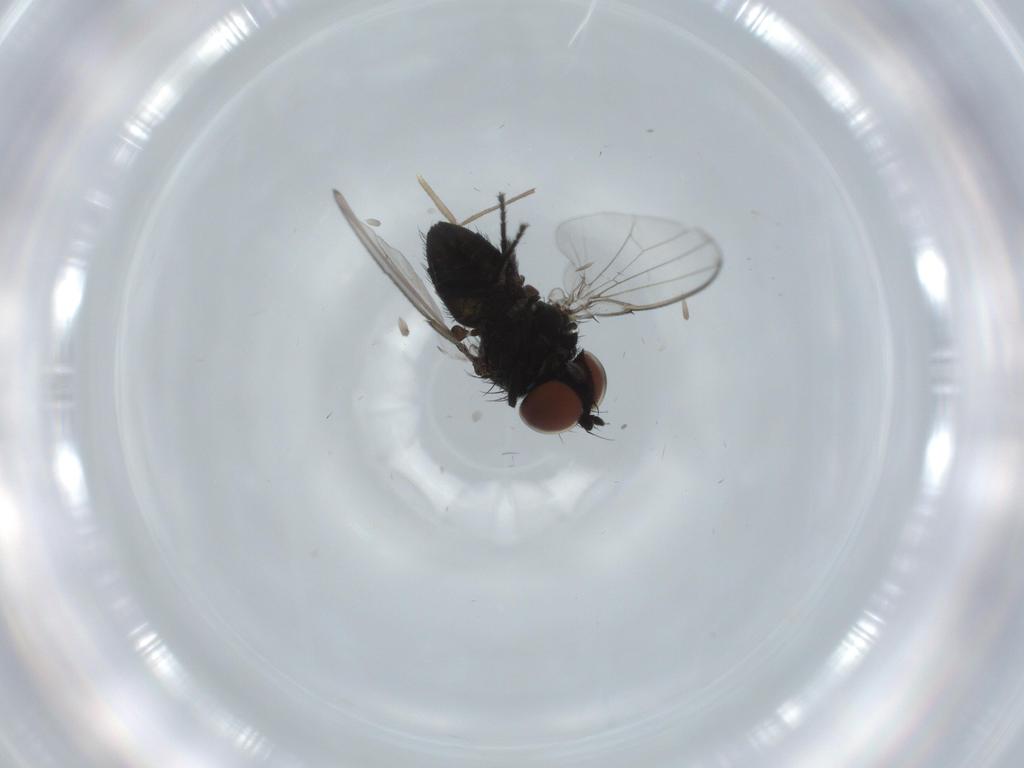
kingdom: Animalia
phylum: Arthropoda
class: Insecta
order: Diptera
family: Milichiidae
